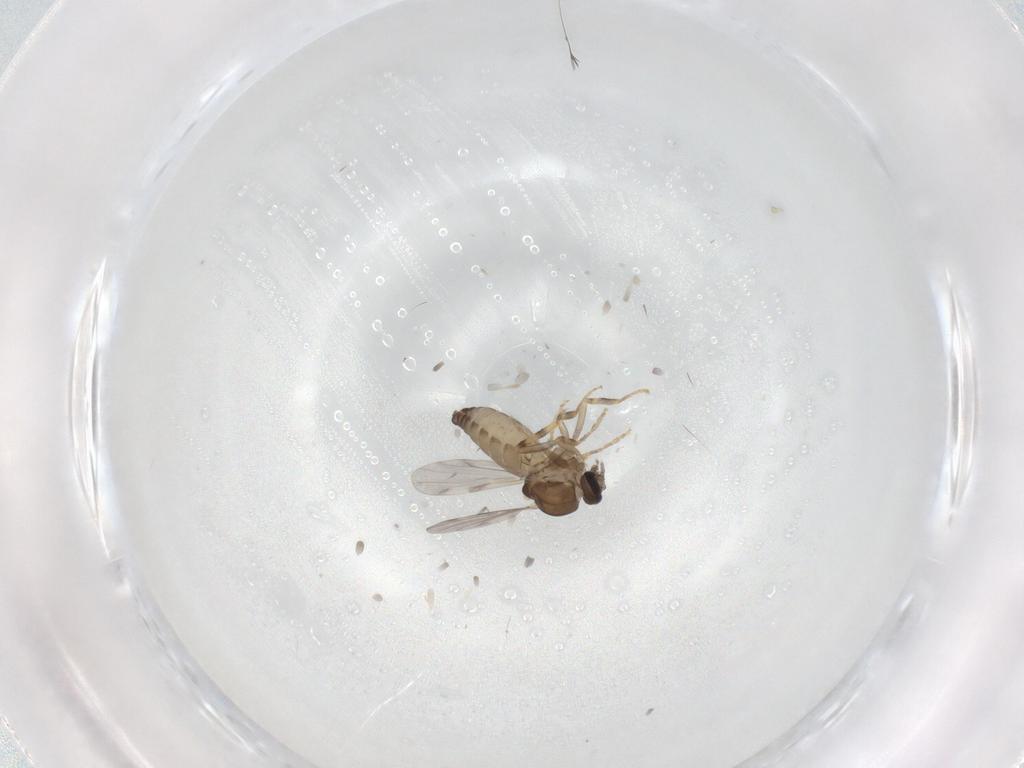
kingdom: Animalia
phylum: Arthropoda
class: Insecta
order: Diptera
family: Ceratopogonidae
